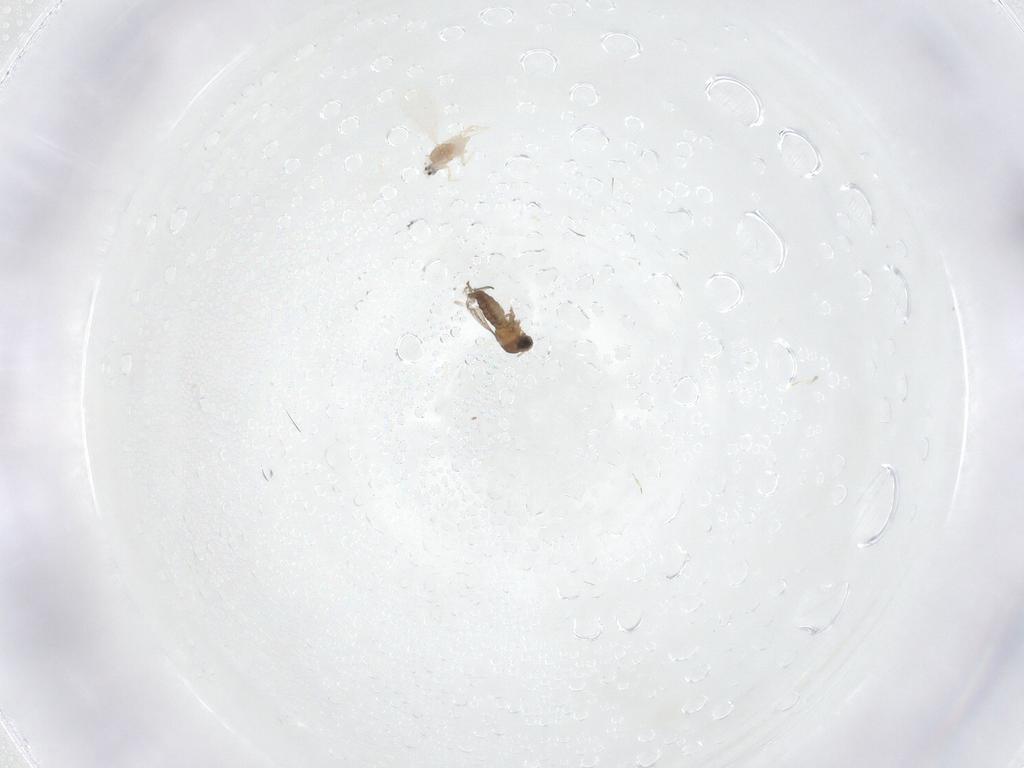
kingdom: Animalia
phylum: Arthropoda
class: Insecta
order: Diptera
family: Cecidomyiidae
